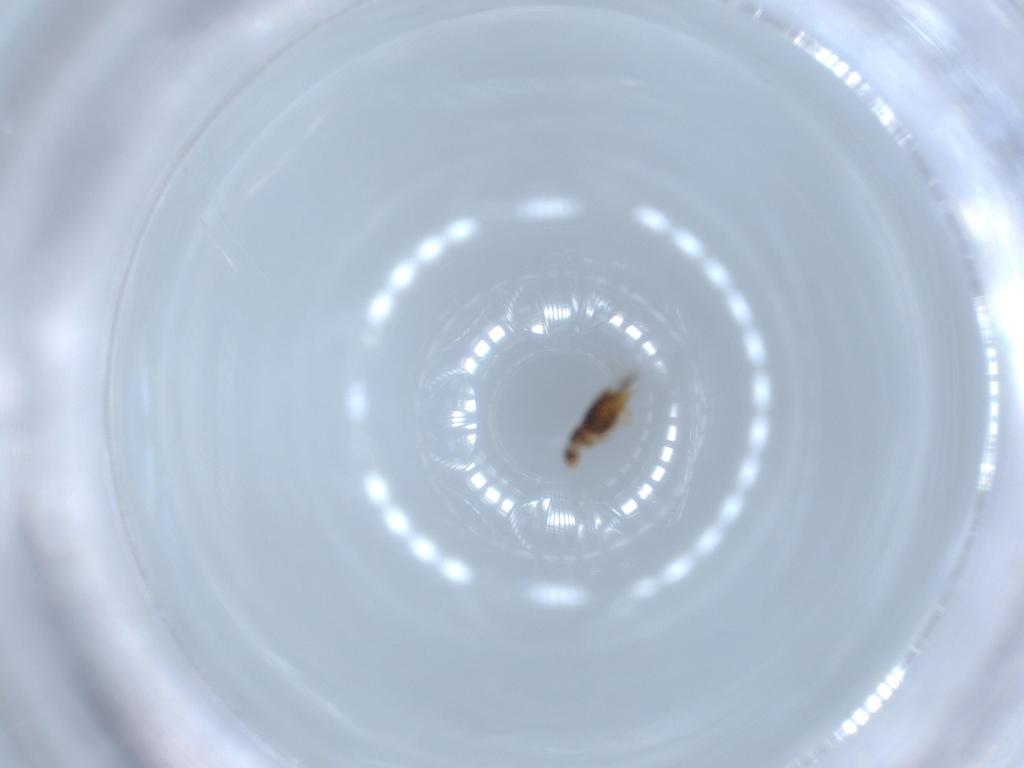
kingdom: Animalia
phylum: Arthropoda
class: Insecta
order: Coleoptera
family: Ptiliidae
